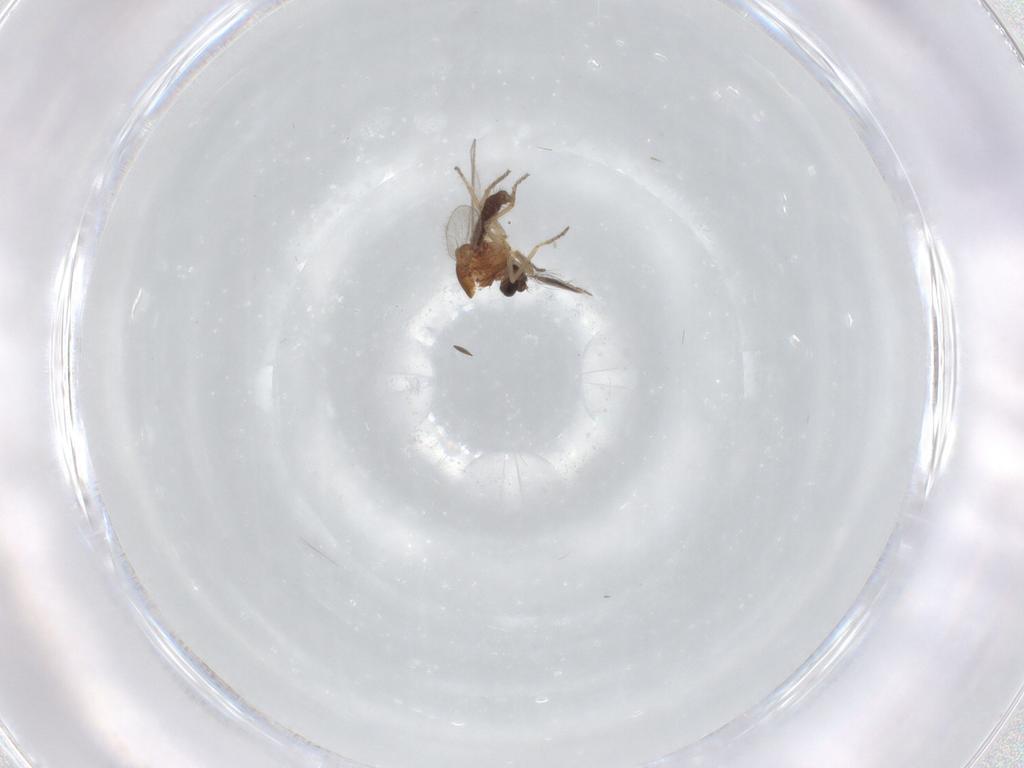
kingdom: Animalia
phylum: Arthropoda
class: Insecta
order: Diptera
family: Ceratopogonidae
